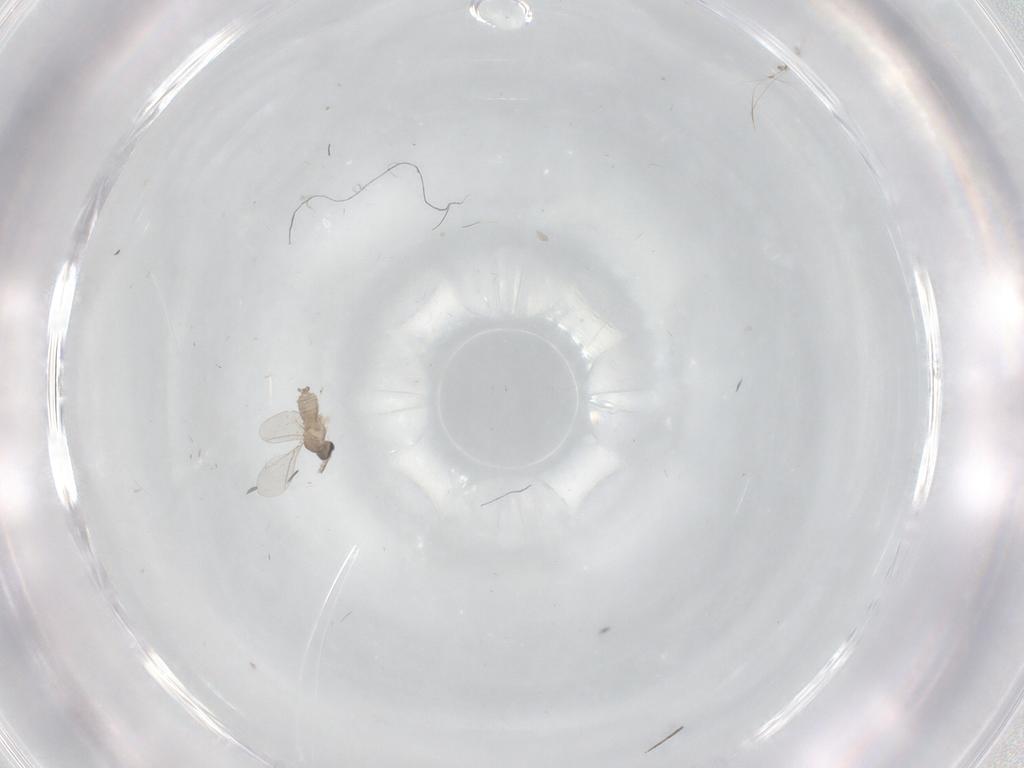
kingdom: Animalia
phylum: Arthropoda
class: Insecta
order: Diptera
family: Cecidomyiidae
